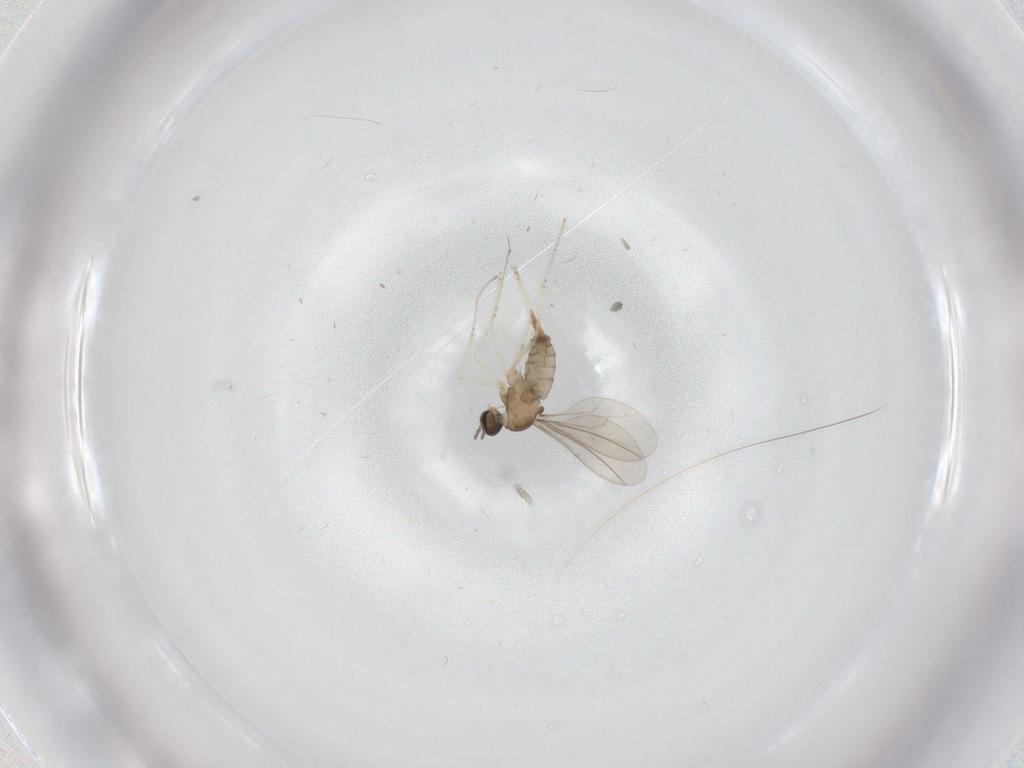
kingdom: Animalia
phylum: Arthropoda
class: Insecta
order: Diptera
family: Cecidomyiidae
